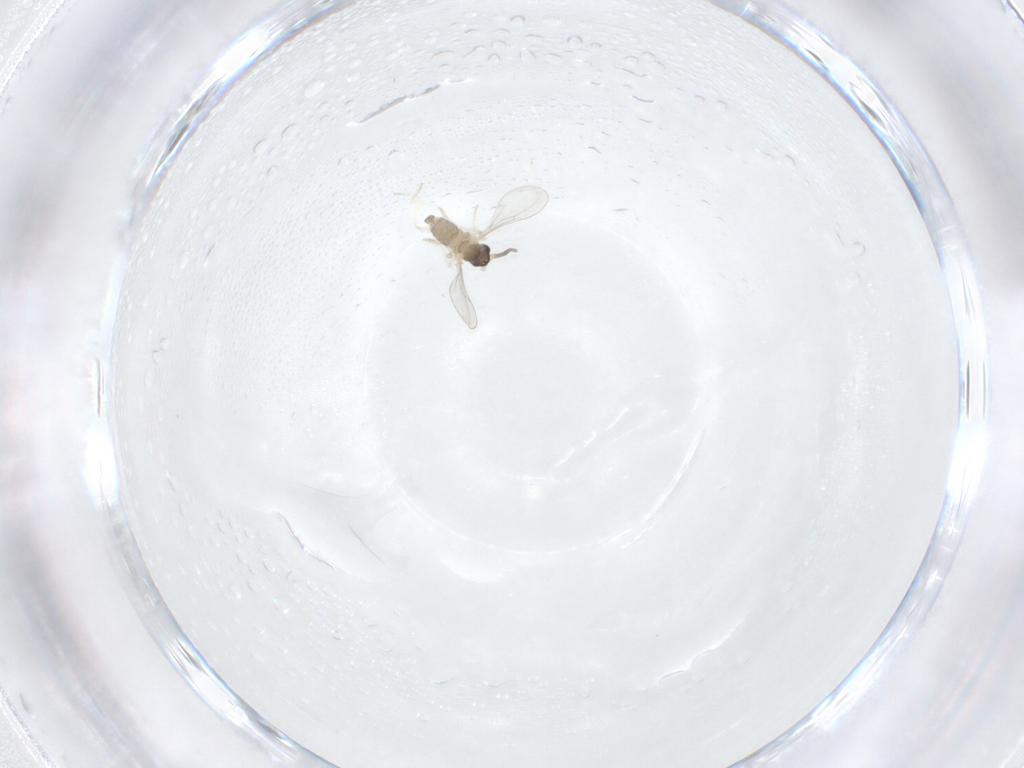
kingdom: Animalia
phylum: Arthropoda
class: Insecta
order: Diptera
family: Cecidomyiidae
